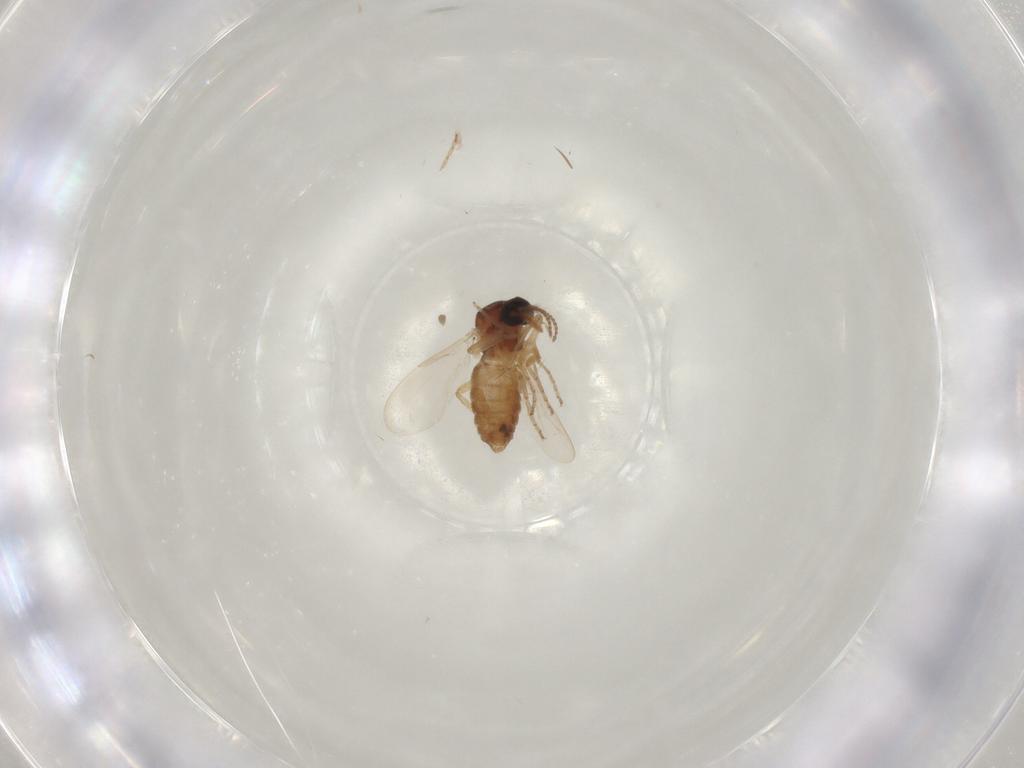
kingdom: Animalia
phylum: Arthropoda
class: Insecta
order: Diptera
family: Ceratopogonidae
